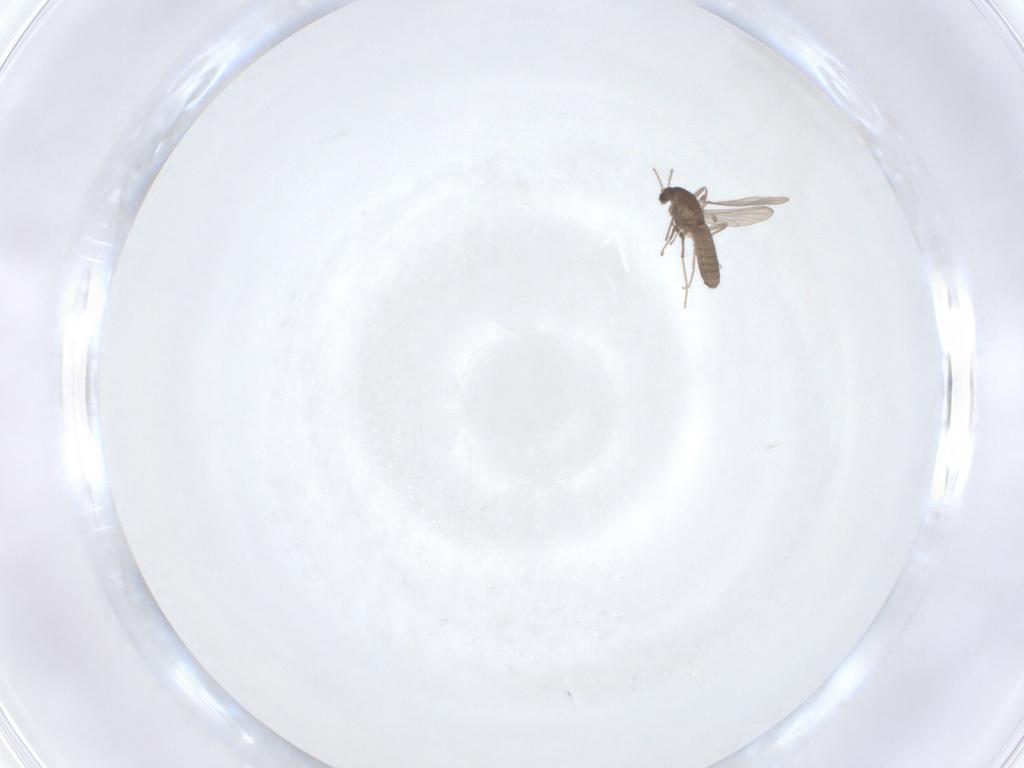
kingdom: Animalia
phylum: Arthropoda
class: Insecta
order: Diptera
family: Chironomidae
